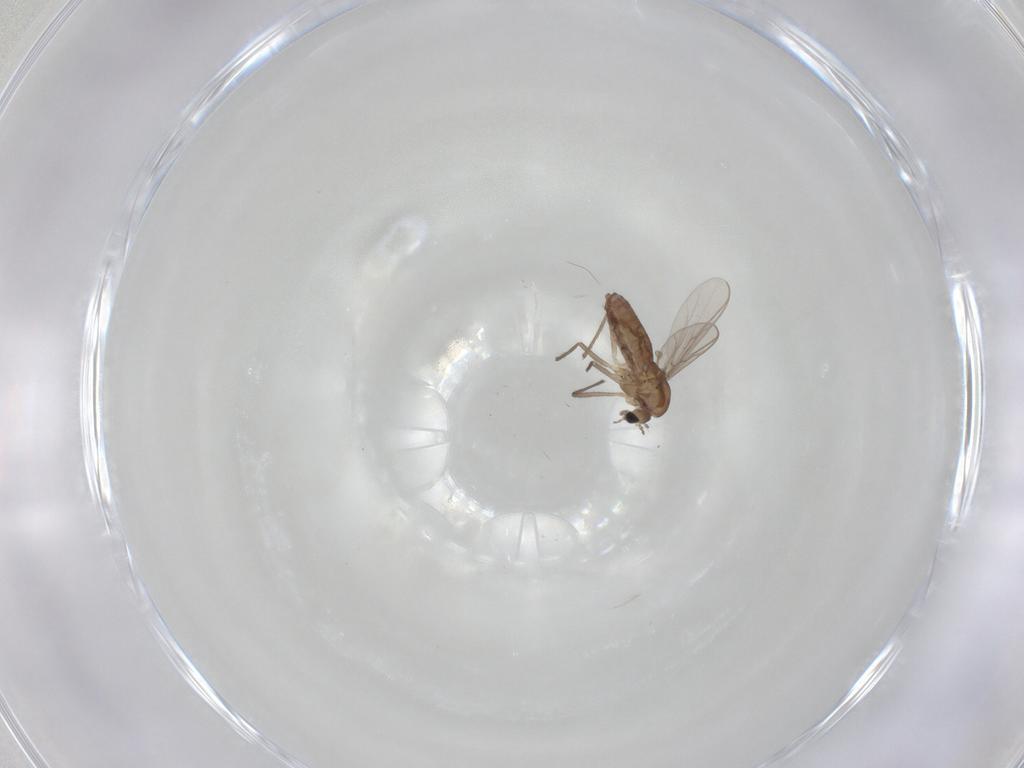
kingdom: Animalia
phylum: Arthropoda
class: Insecta
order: Diptera
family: Chironomidae
